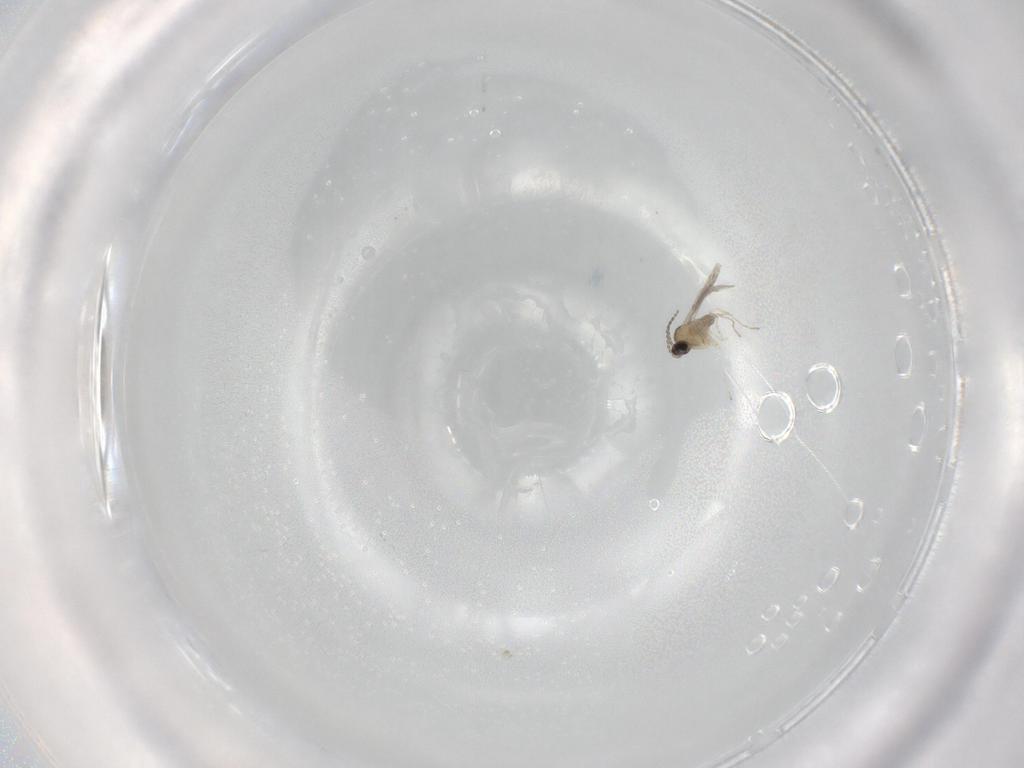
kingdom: Animalia
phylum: Arthropoda
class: Insecta
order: Diptera
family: Cecidomyiidae
